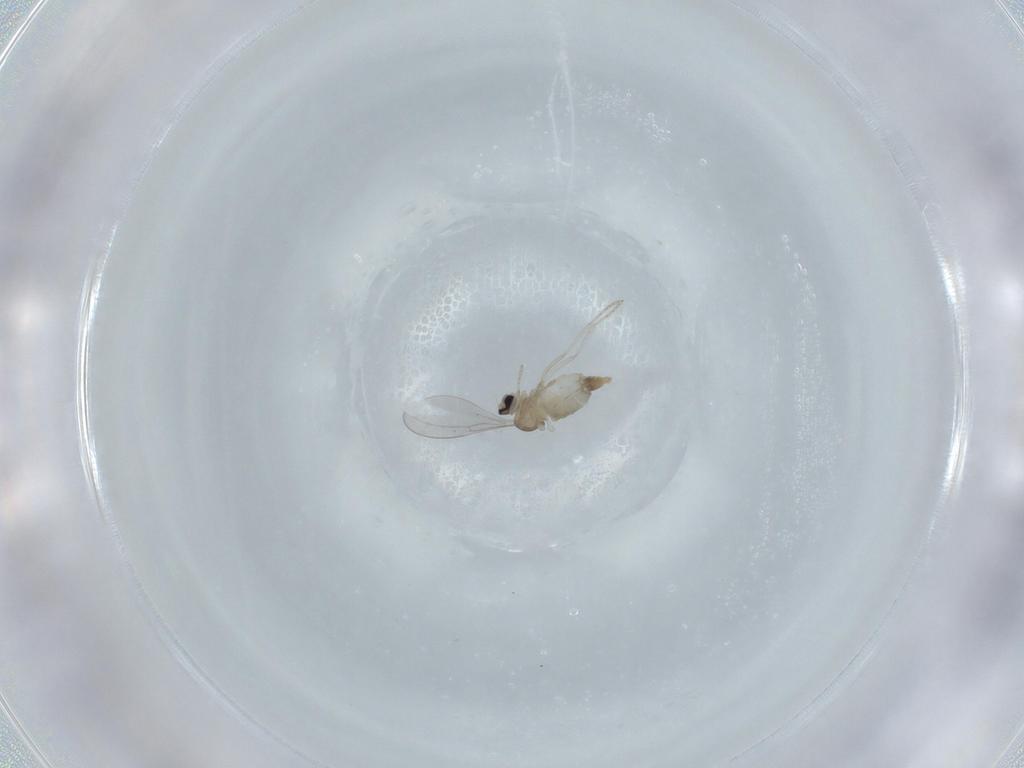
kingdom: Animalia
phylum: Arthropoda
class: Insecta
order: Diptera
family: Cecidomyiidae
